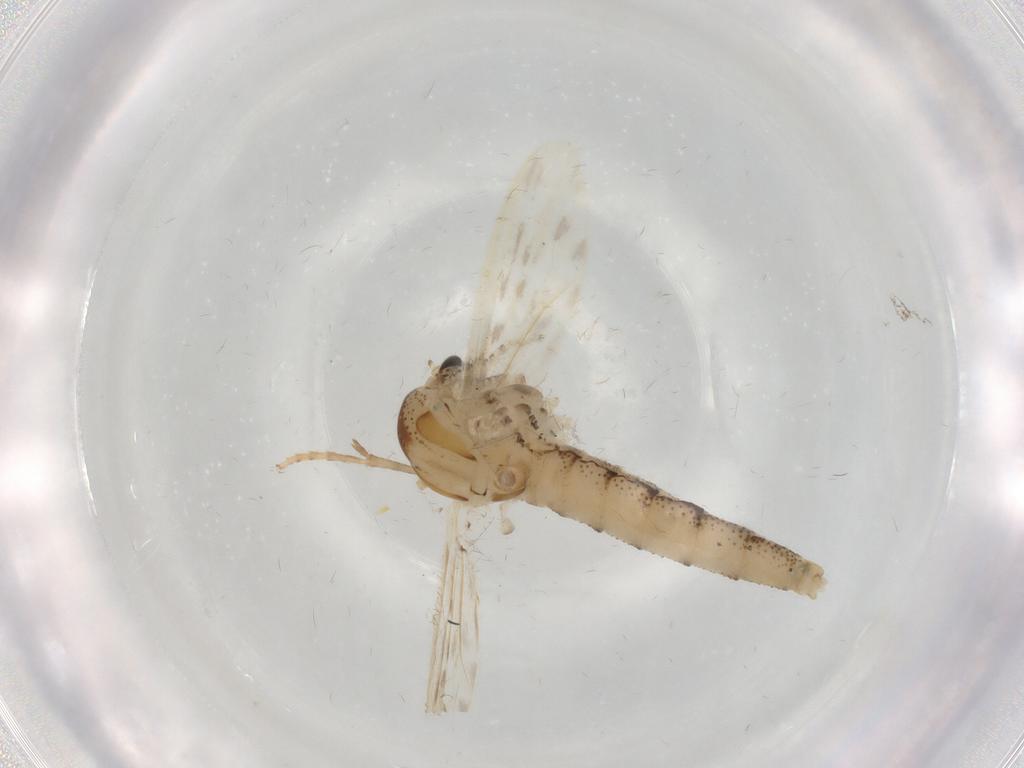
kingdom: Animalia
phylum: Arthropoda
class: Insecta
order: Diptera
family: Chaoboridae
